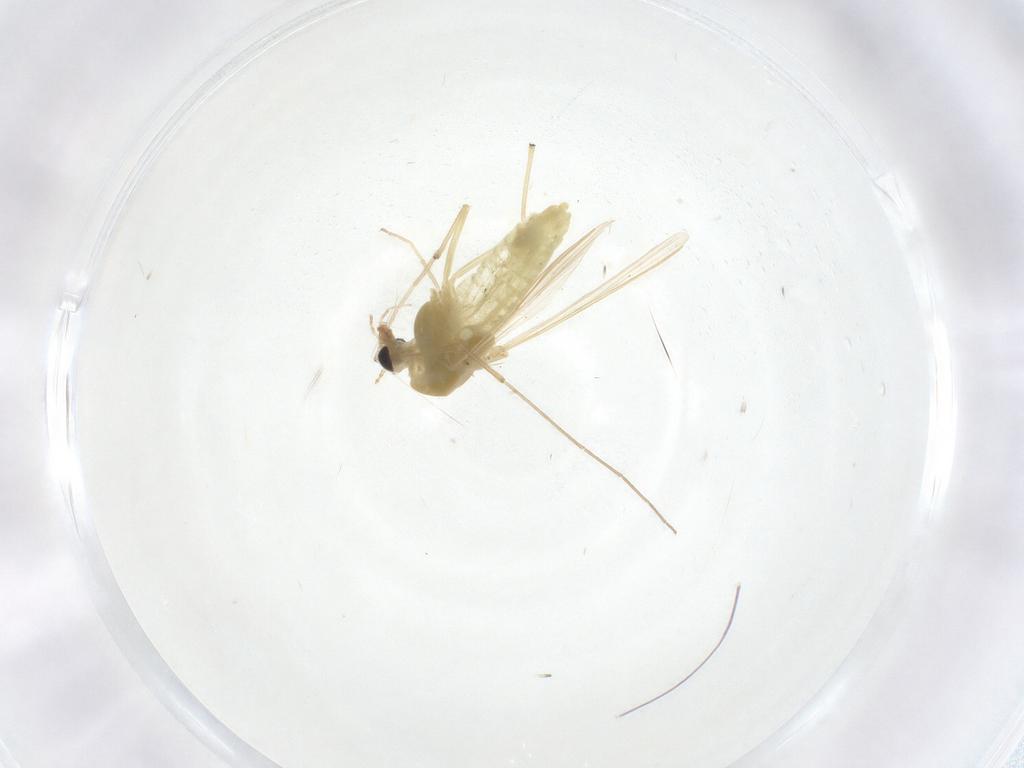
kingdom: Animalia
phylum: Arthropoda
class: Insecta
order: Diptera
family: Chironomidae
